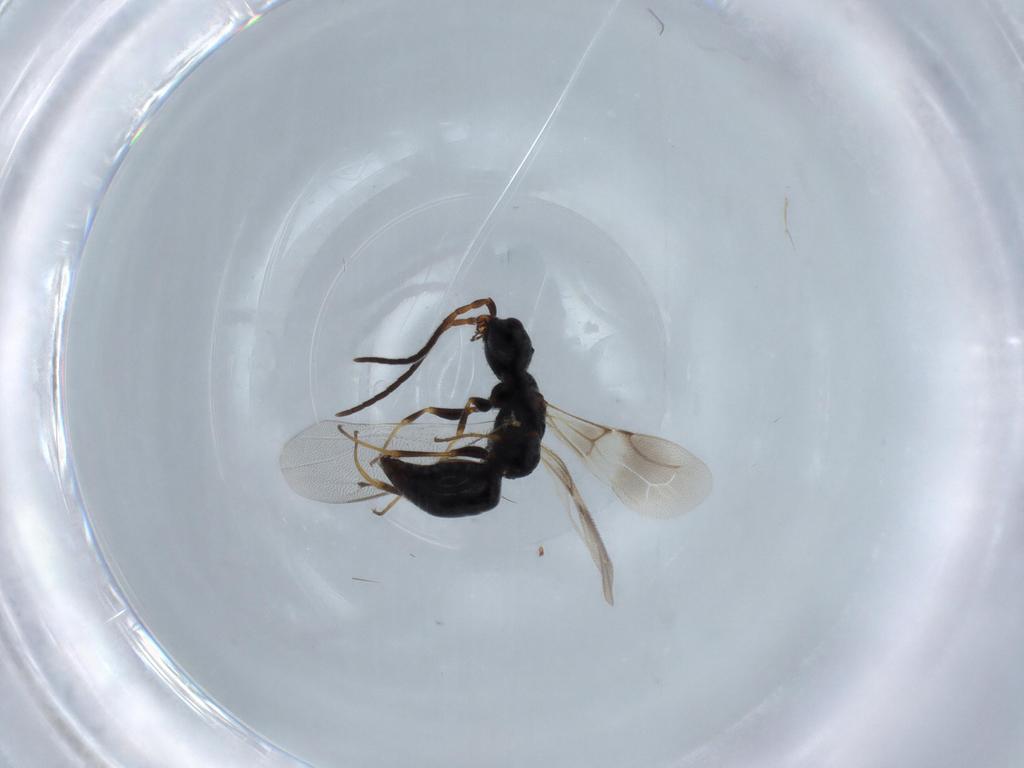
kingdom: Animalia
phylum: Arthropoda
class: Insecta
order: Hymenoptera
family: Bethylidae
